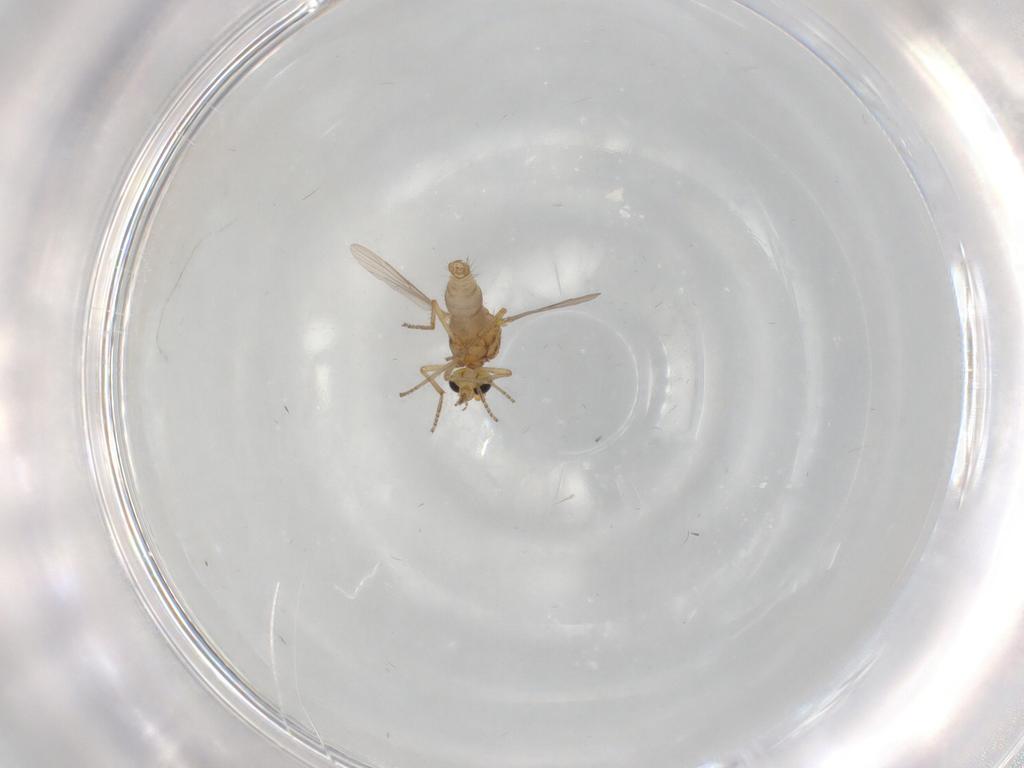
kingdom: Animalia
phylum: Arthropoda
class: Insecta
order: Diptera
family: Ceratopogonidae
